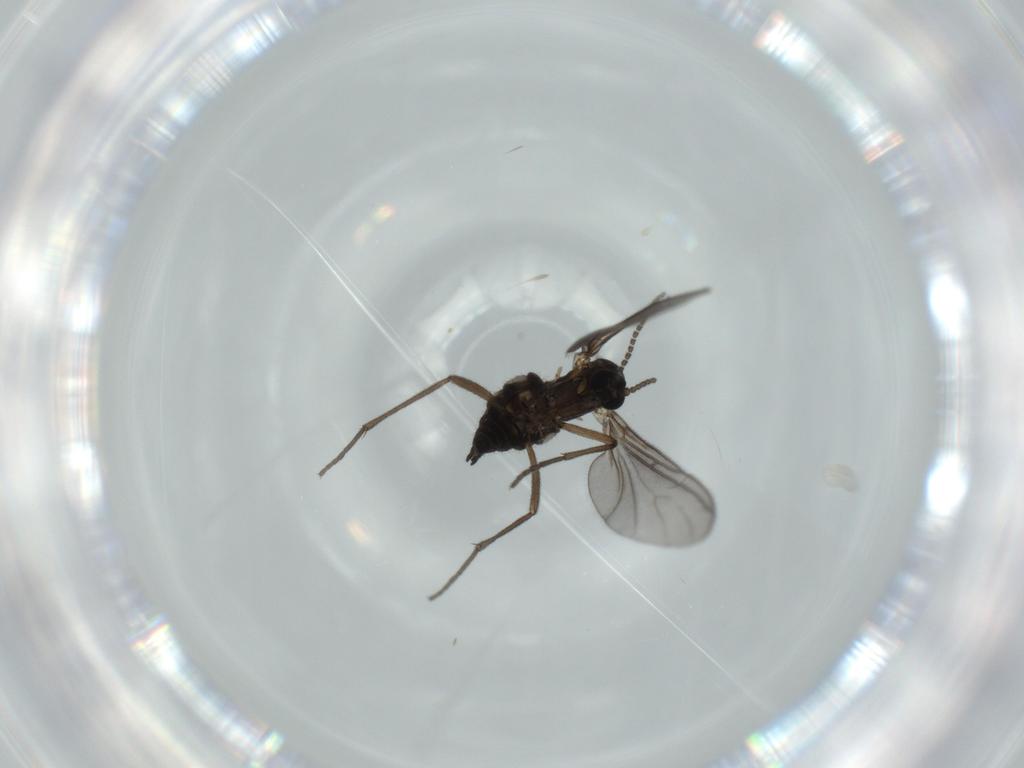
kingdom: Animalia
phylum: Arthropoda
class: Insecta
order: Diptera
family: Sciaridae
